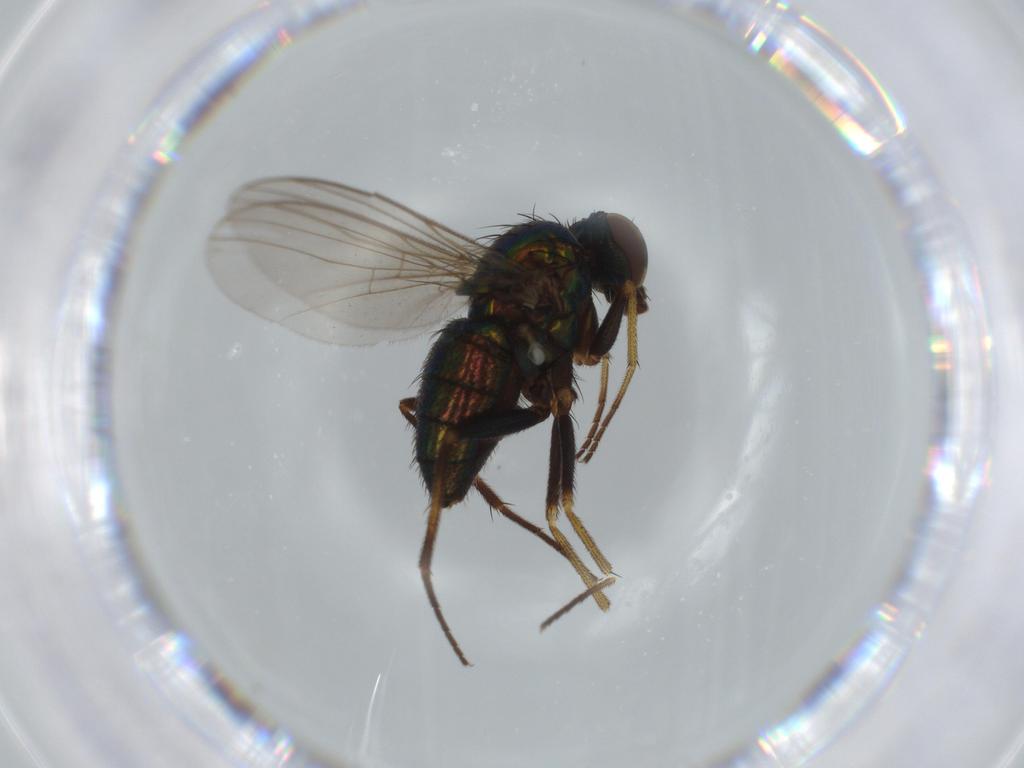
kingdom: Animalia
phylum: Arthropoda
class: Insecta
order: Diptera
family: Dolichopodidae
